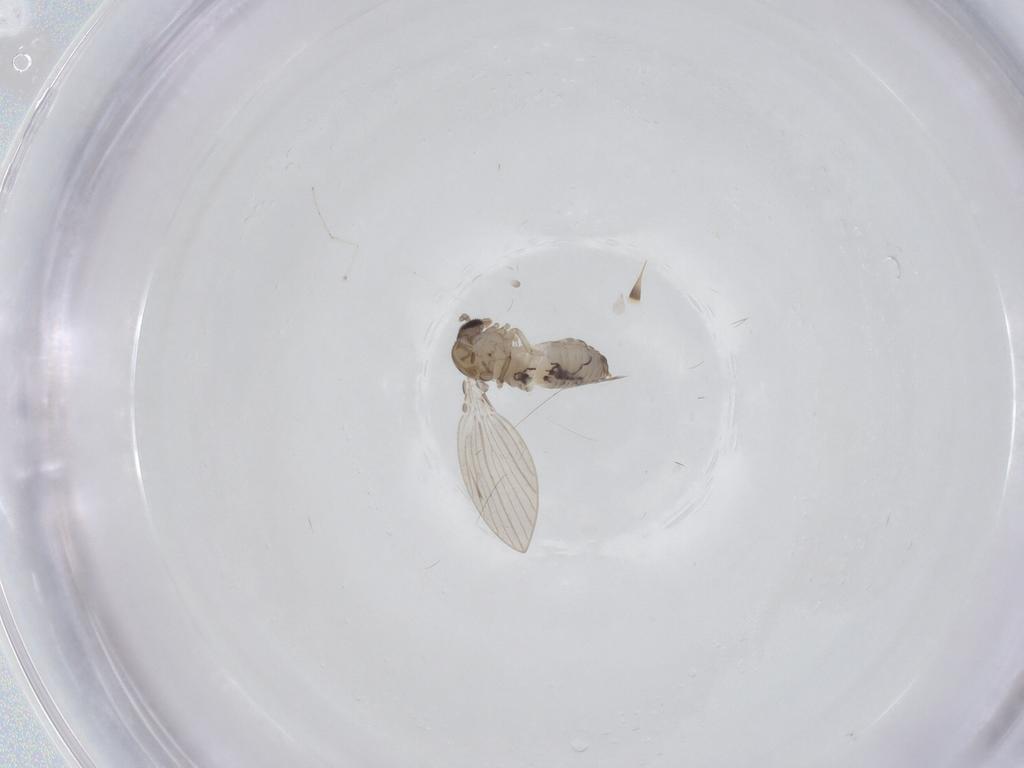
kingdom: Animalia
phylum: Arthropoda
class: Insecta
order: Diptera
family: Psychodidae
